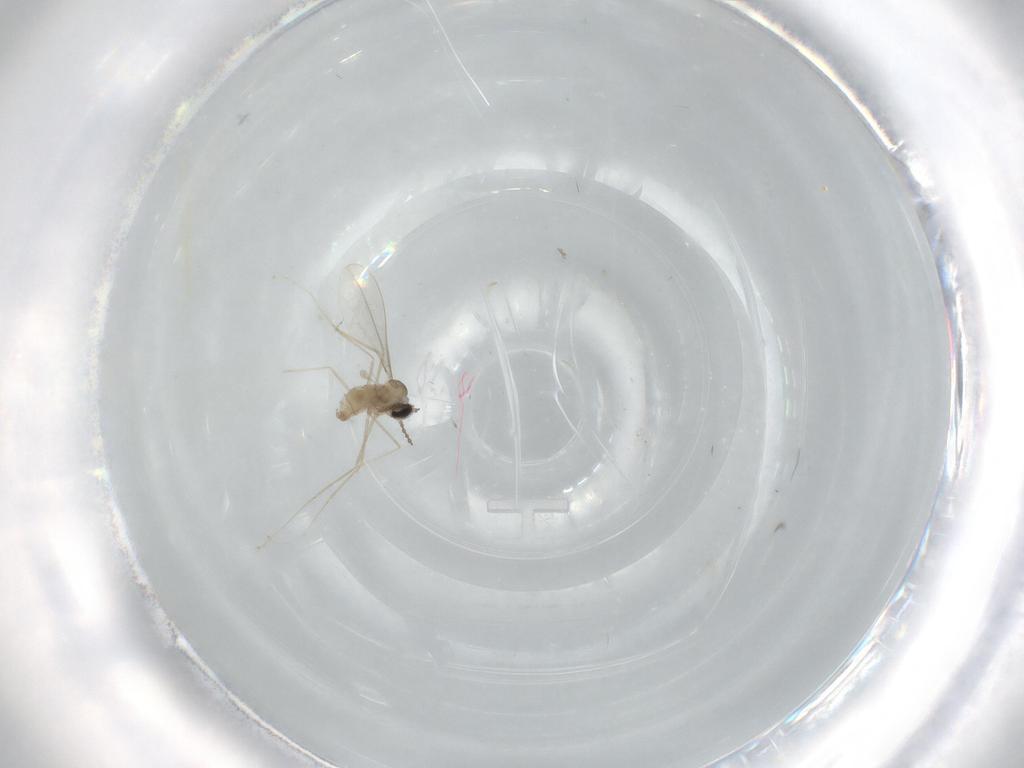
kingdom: Animalia
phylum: Arthropoda
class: Insecta
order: Diptera
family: Cecidomyiidae
